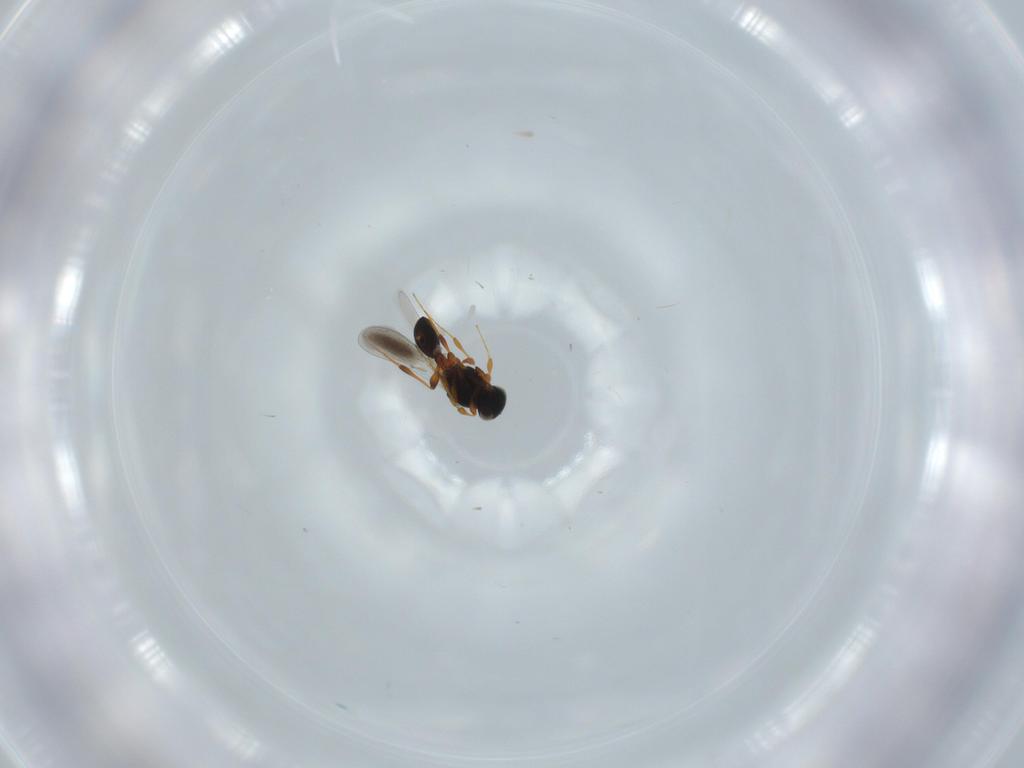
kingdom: Animalia
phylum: Arthropoda
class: Insecta
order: Hymenoptera
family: Platygastridae
